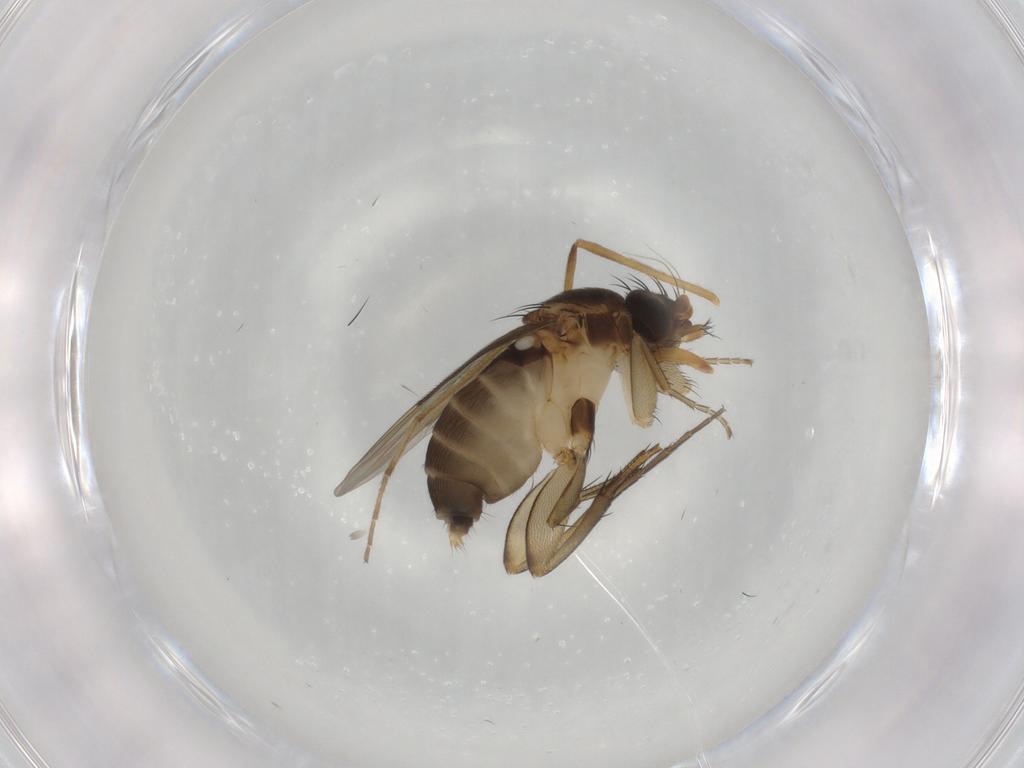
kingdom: Animalia
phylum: Arthropoda
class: Insecta
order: Diptera
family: Phoridae
